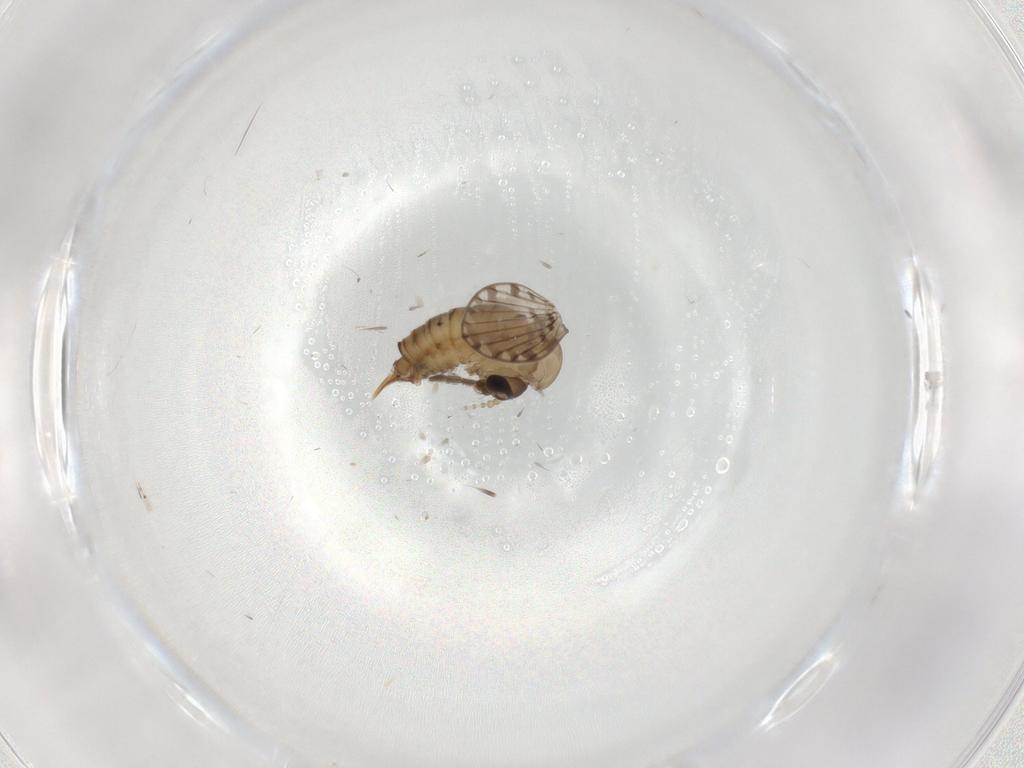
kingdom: Animalia
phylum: Arthropoda
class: Insecta
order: Diptera
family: Psychodidae
